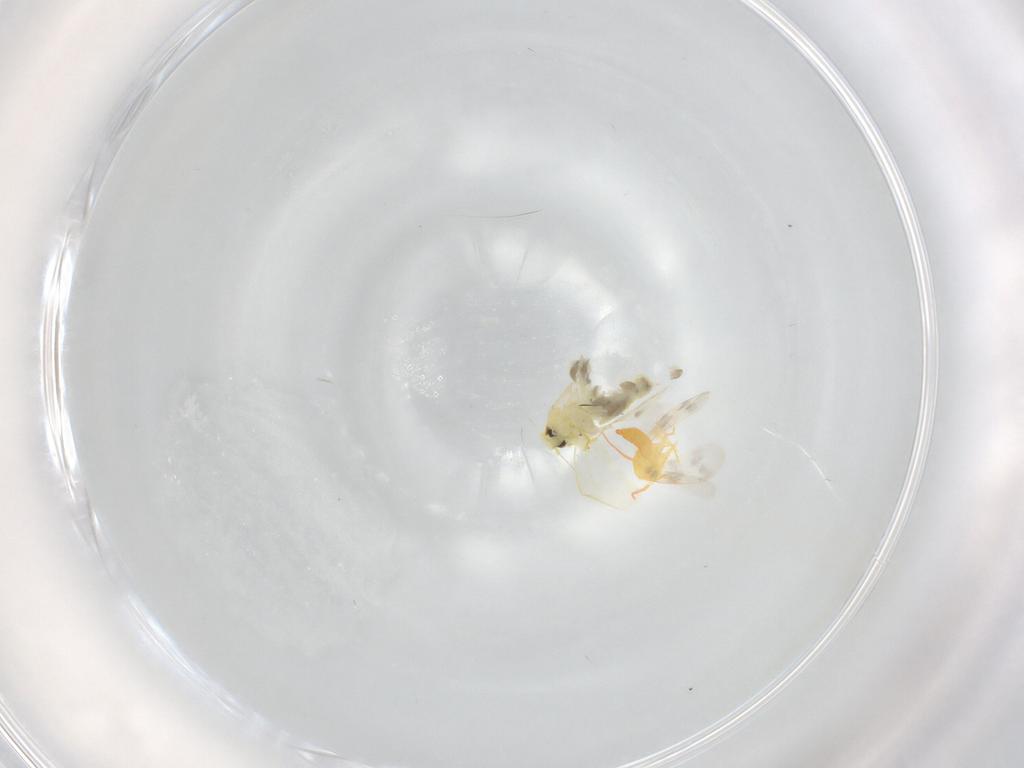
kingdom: Animalia
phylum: Arthropoda
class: Insecta
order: Hemiptera
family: Aleyrodidae
